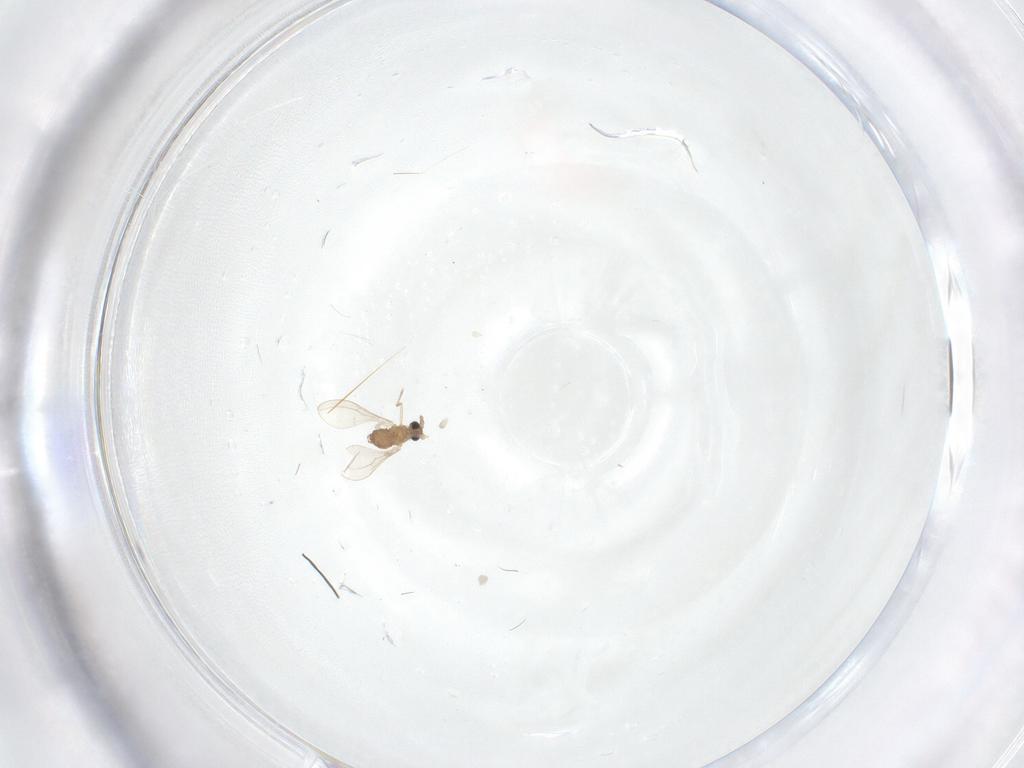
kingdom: Animalia
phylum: Arthropoda
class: Insecta
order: Diptera
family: Cecidomyiidae
